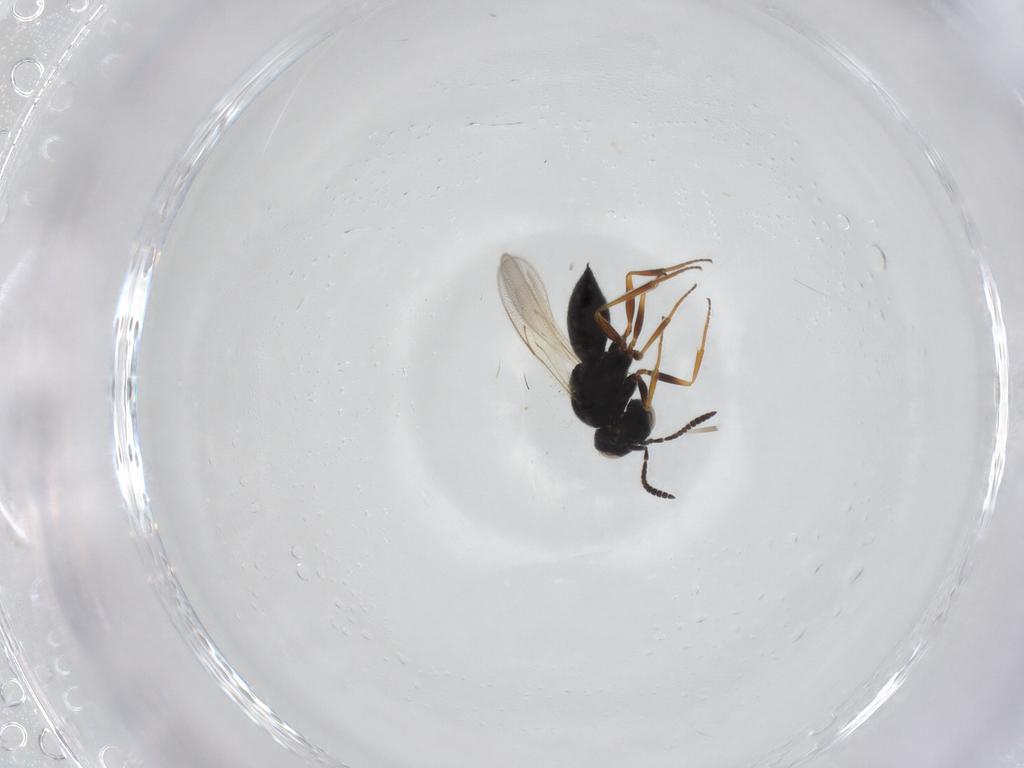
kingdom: Animalia
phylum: Arthropoda
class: Insecta
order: Hymenoptera
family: Scelionidae
